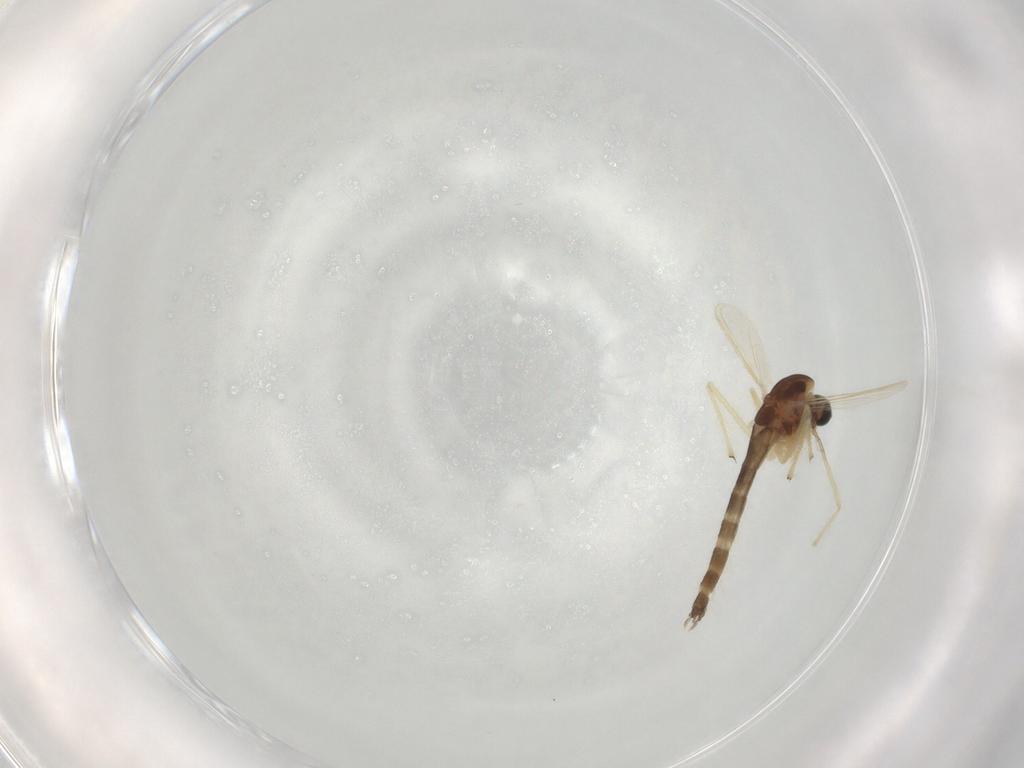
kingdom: Animalia
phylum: Arthropoda
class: Insecta
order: Diptera
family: Chironomidae
